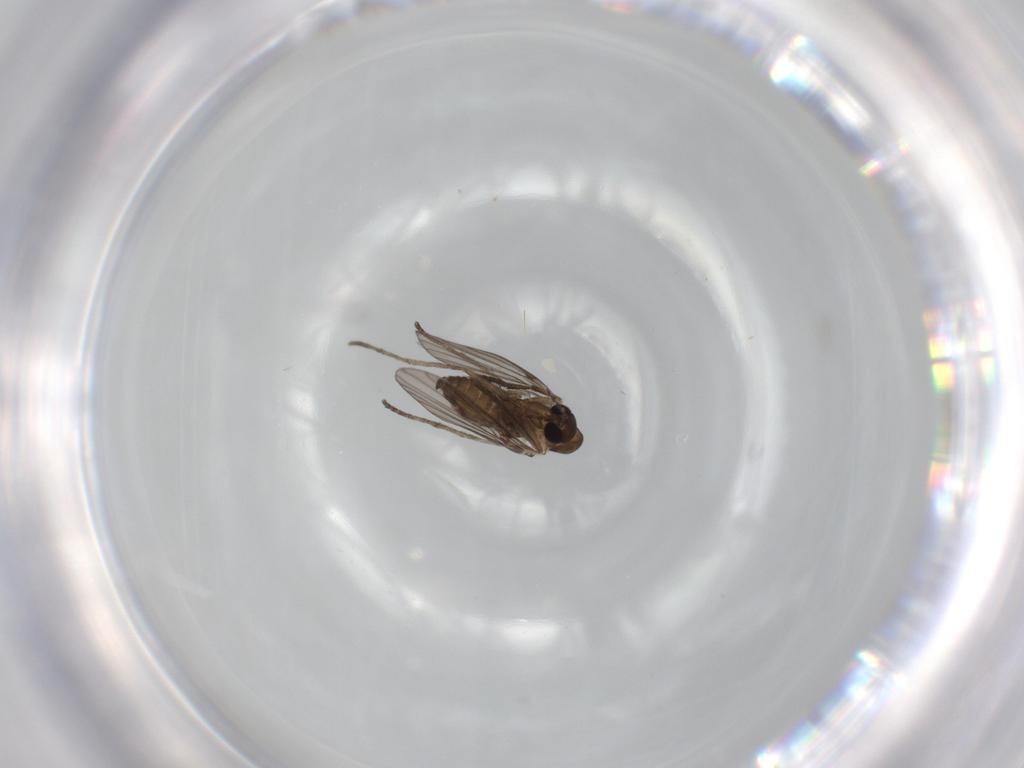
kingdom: Animalia
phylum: Arthropoda
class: Insecta
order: Diptera
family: Psychodidae
